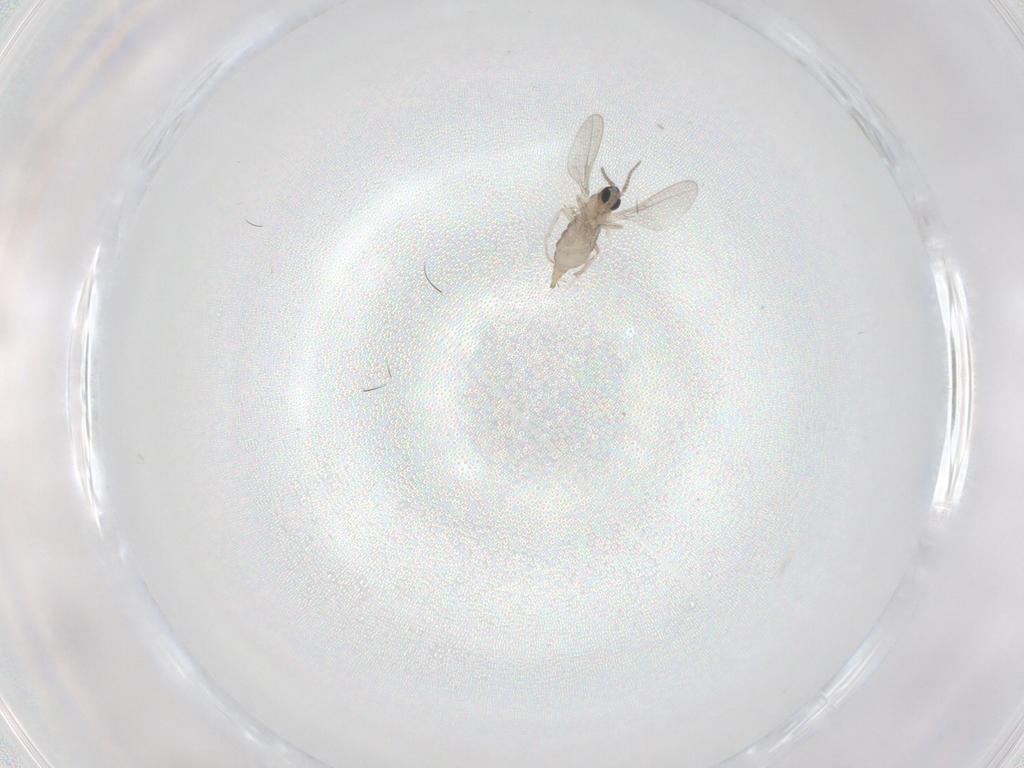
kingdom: Animalia
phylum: Arthropoda
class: Insecta
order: Diptera
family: Cecidomyiidae
